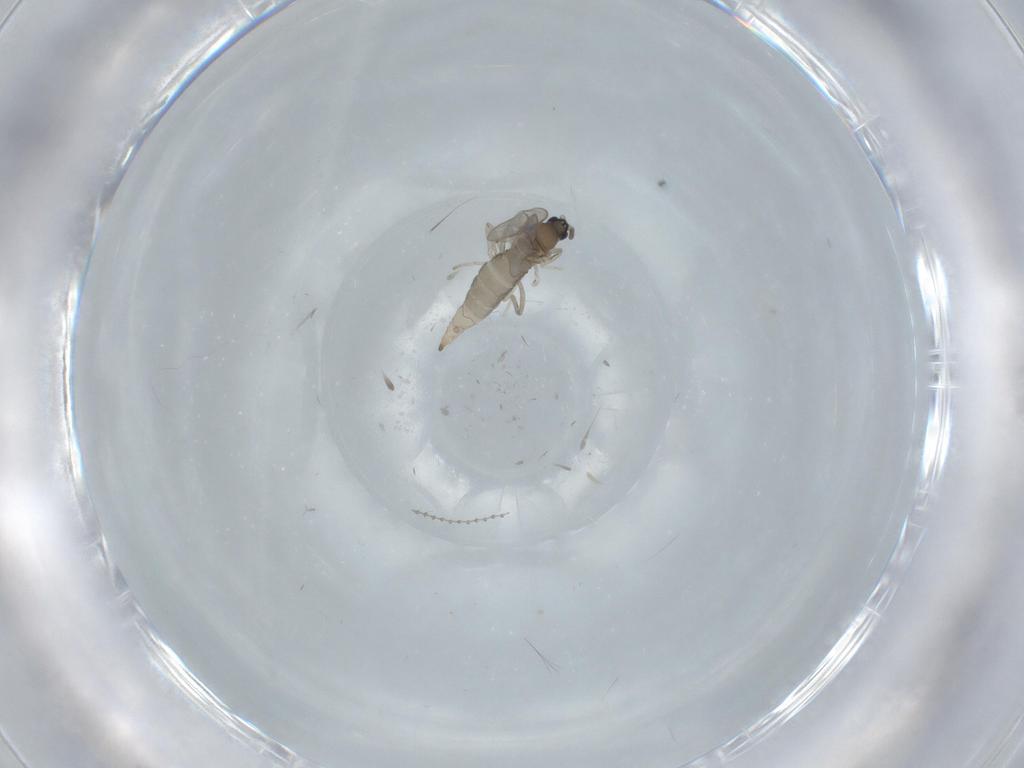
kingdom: Animalia
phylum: Arthropoda
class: Insecta
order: Diptera
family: Cecidomyiidae
